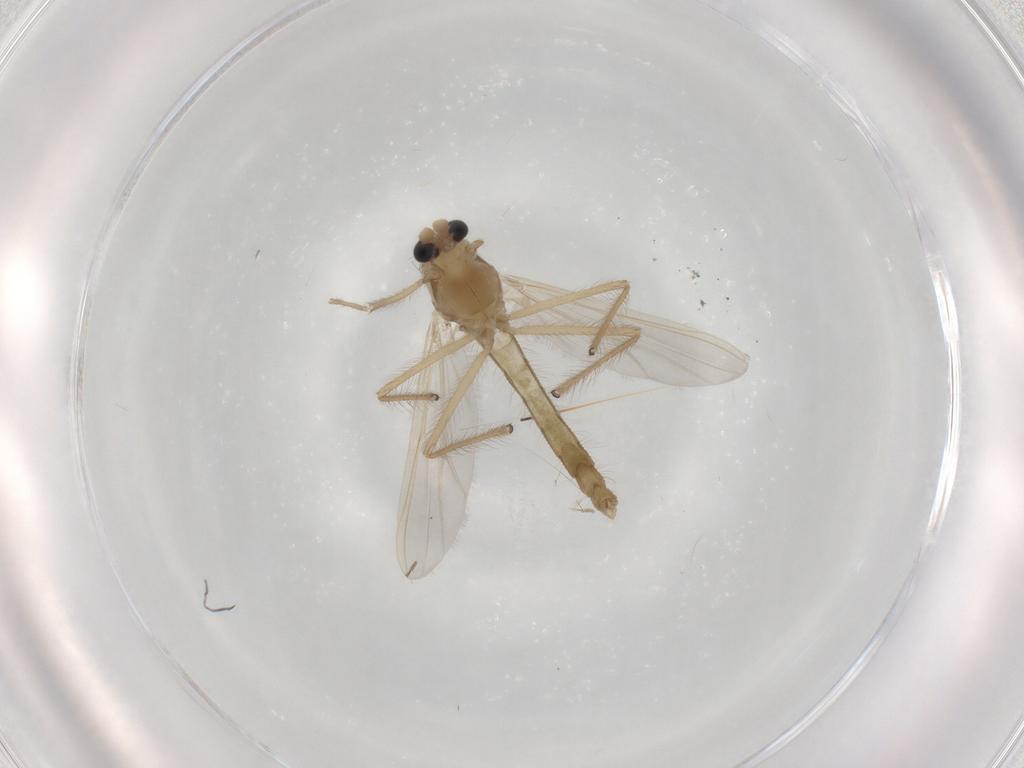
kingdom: Animalia
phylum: Arthropoda
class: Insecta
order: Diptera
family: Chironomidae
